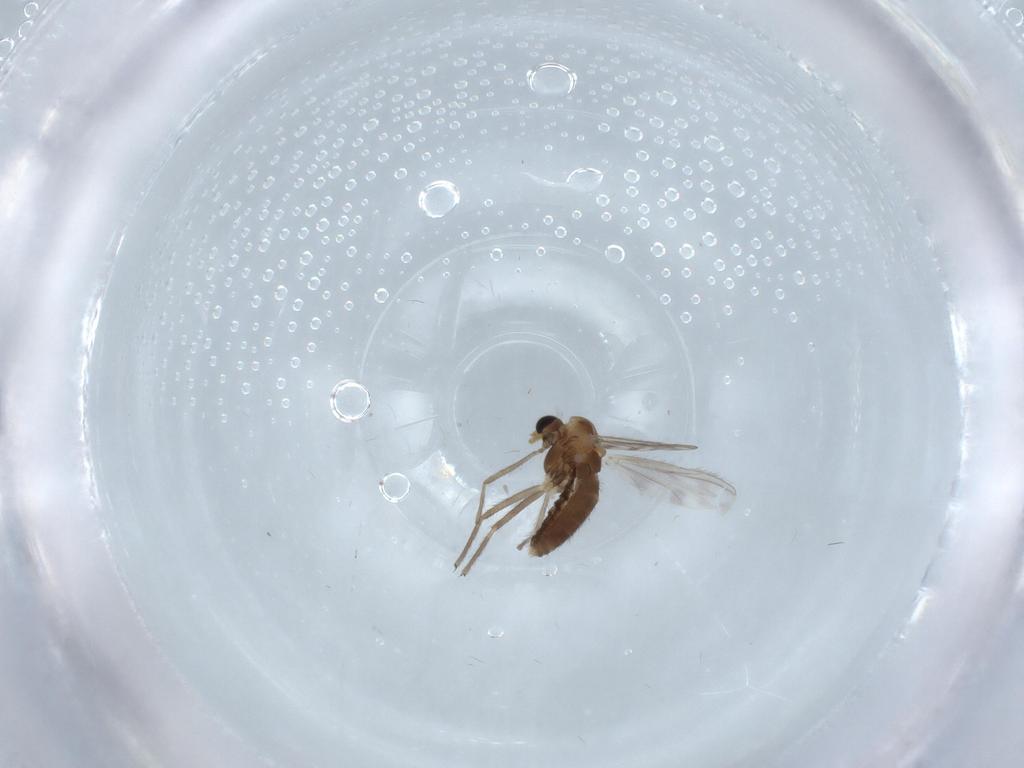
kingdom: Animalia
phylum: Arthropoda
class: Insecta
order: Diptera
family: Chironomidae
